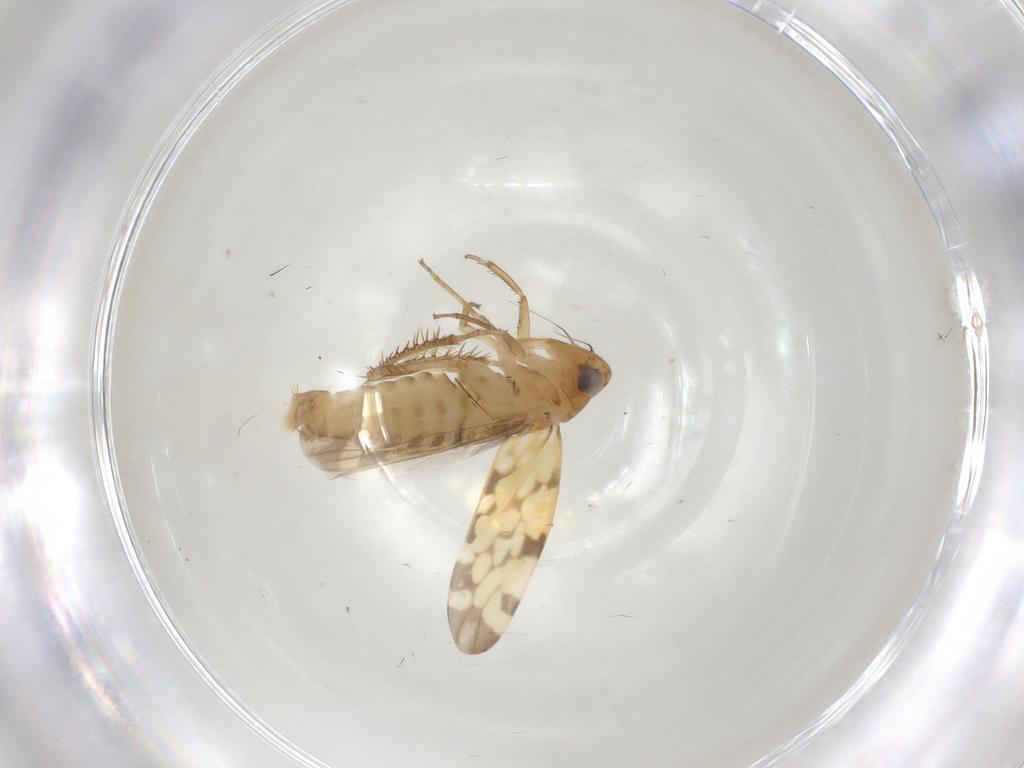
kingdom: Animalia
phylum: Arthropoda
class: Insecta
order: Hemiptera
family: Cicadellidae
